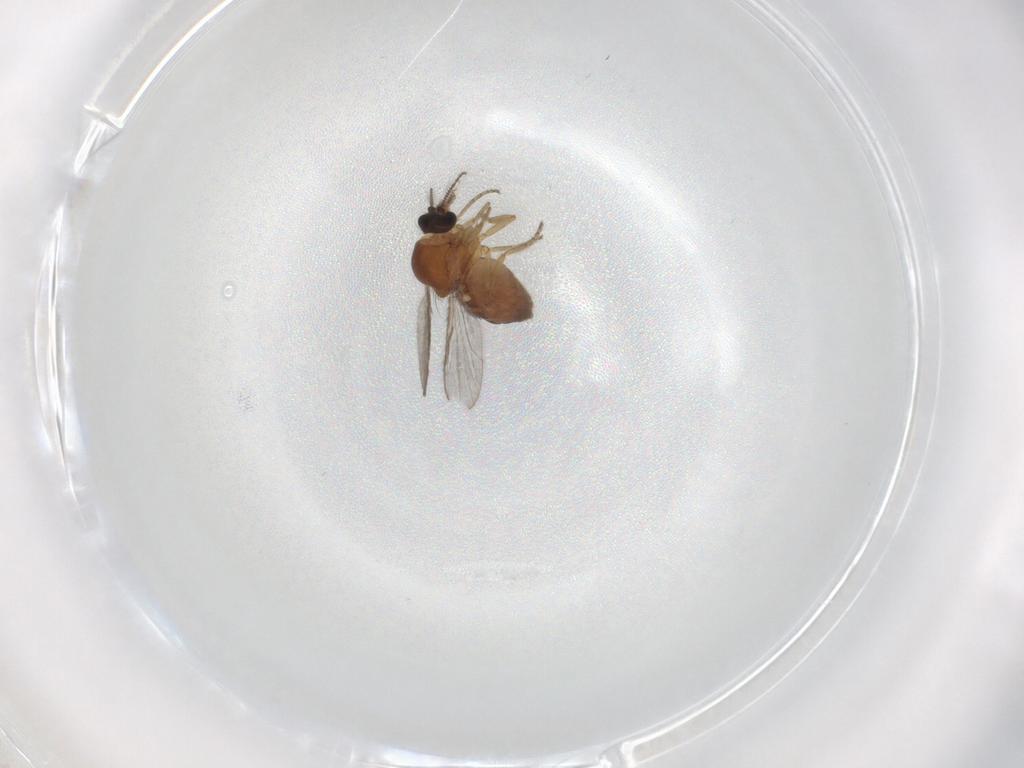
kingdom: Animalia
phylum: Arthropoda
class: Insecta
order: Diptera
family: Ceratopogonidae
